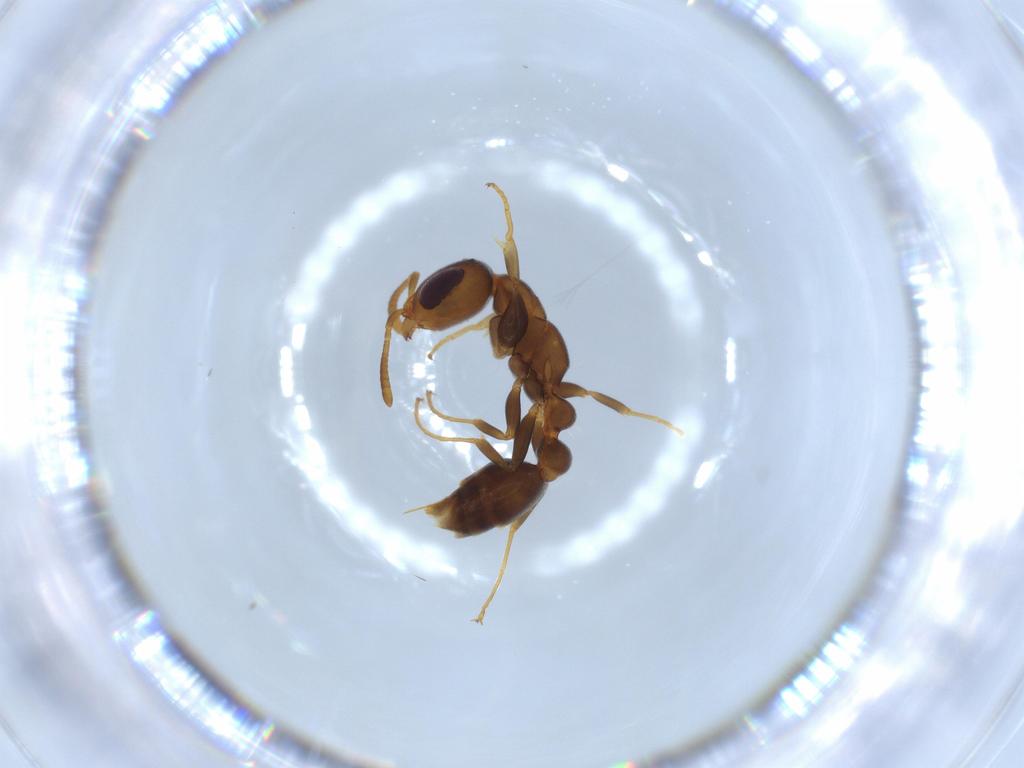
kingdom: Animalia
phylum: Arthropoda
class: Insecta
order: Hymenoptera
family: Formicidae
